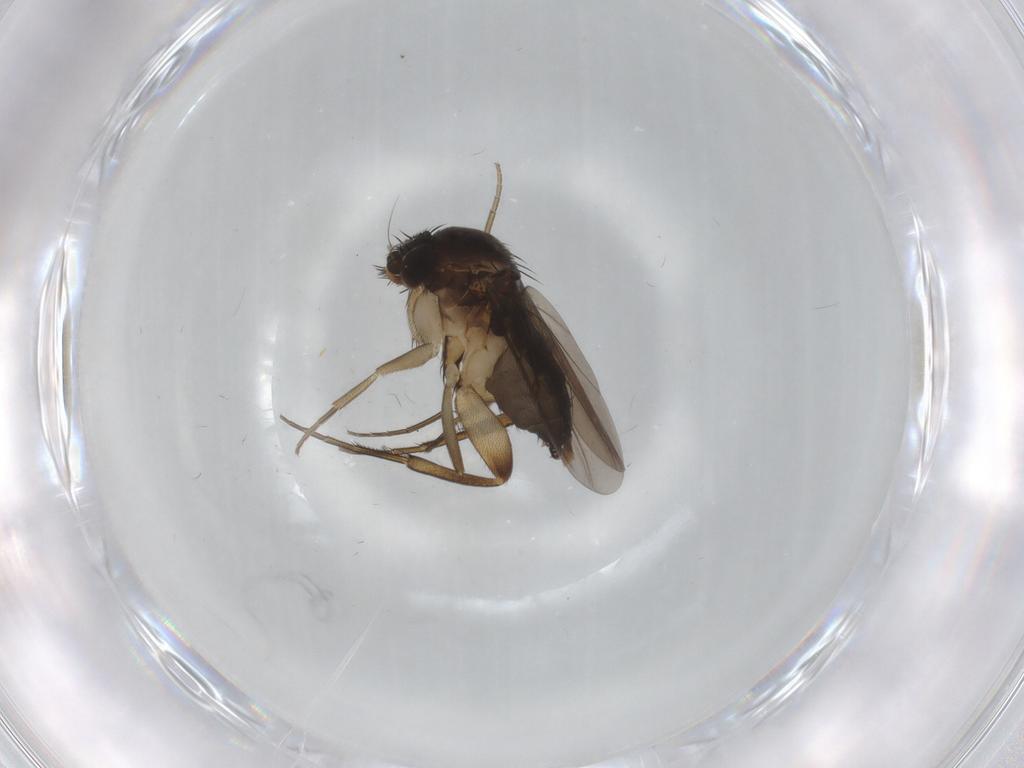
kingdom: Animalia
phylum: Arthropoda
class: Insecta
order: Diptera
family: Phoridae
